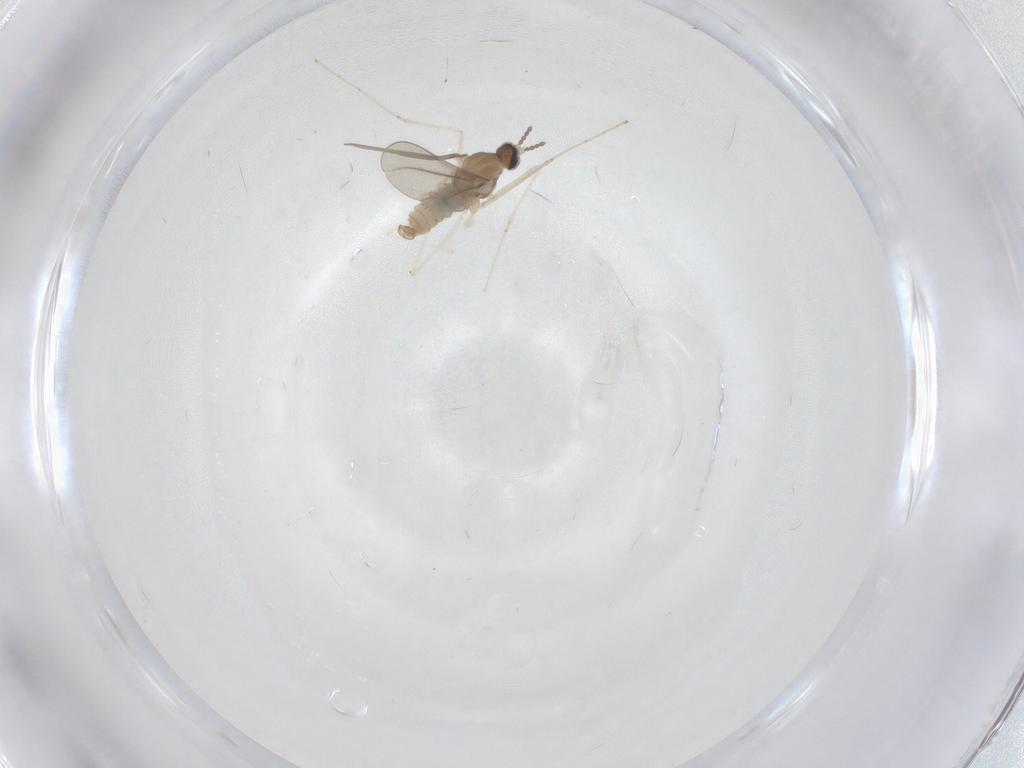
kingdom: Animalia
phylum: Arthropoda
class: Insecta
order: Diptera
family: Cecidomyiidae
